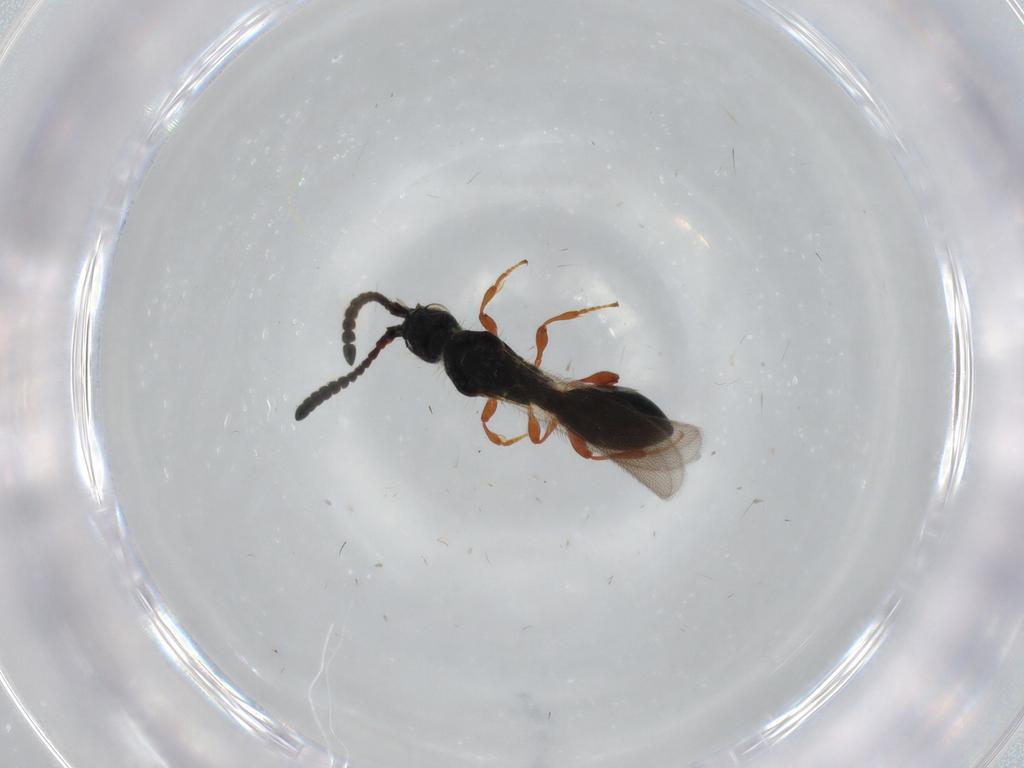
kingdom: Animalia
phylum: Arthropoda
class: Insecta
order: Hymenoptera
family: Diapriidae
